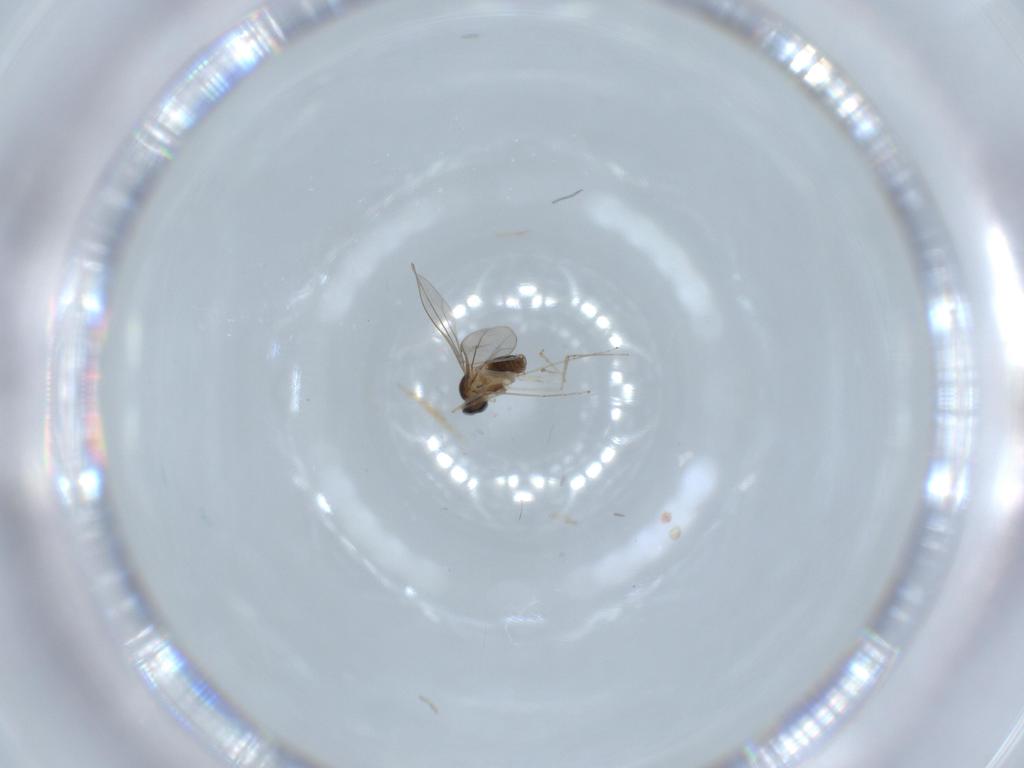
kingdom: Animalia
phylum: Arthropoda
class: Insecta
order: Diptera
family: Cecidomyiidae
